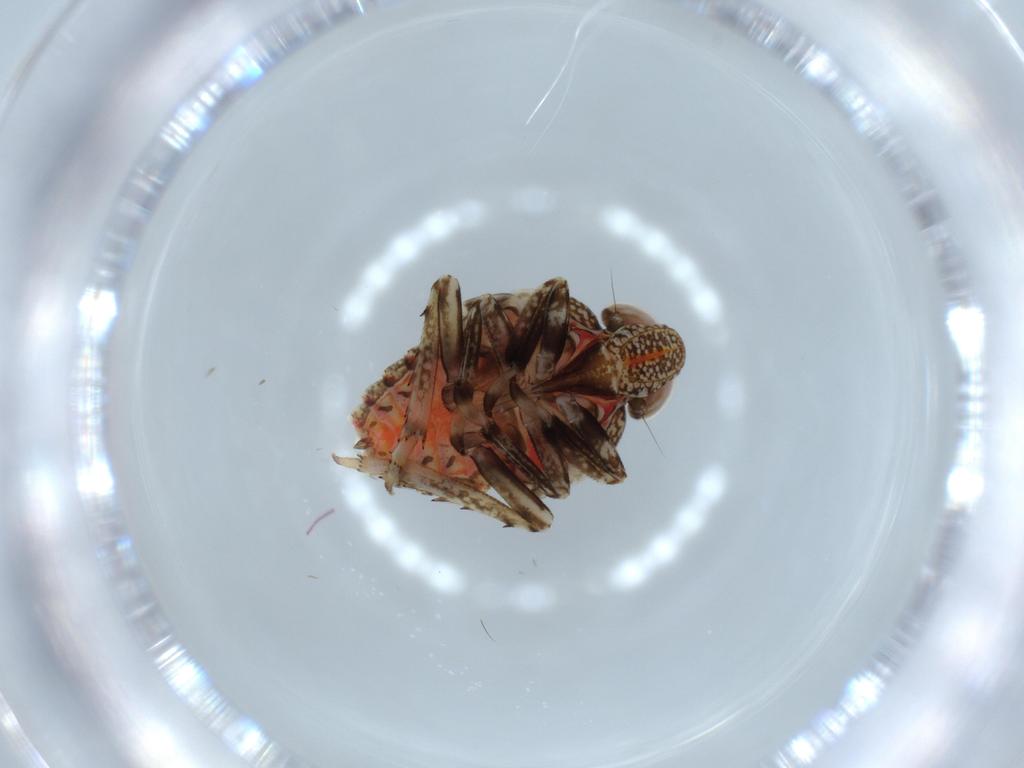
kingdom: Animalia
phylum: Arthropoda
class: Insecta
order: Hemiptera
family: Issidae
